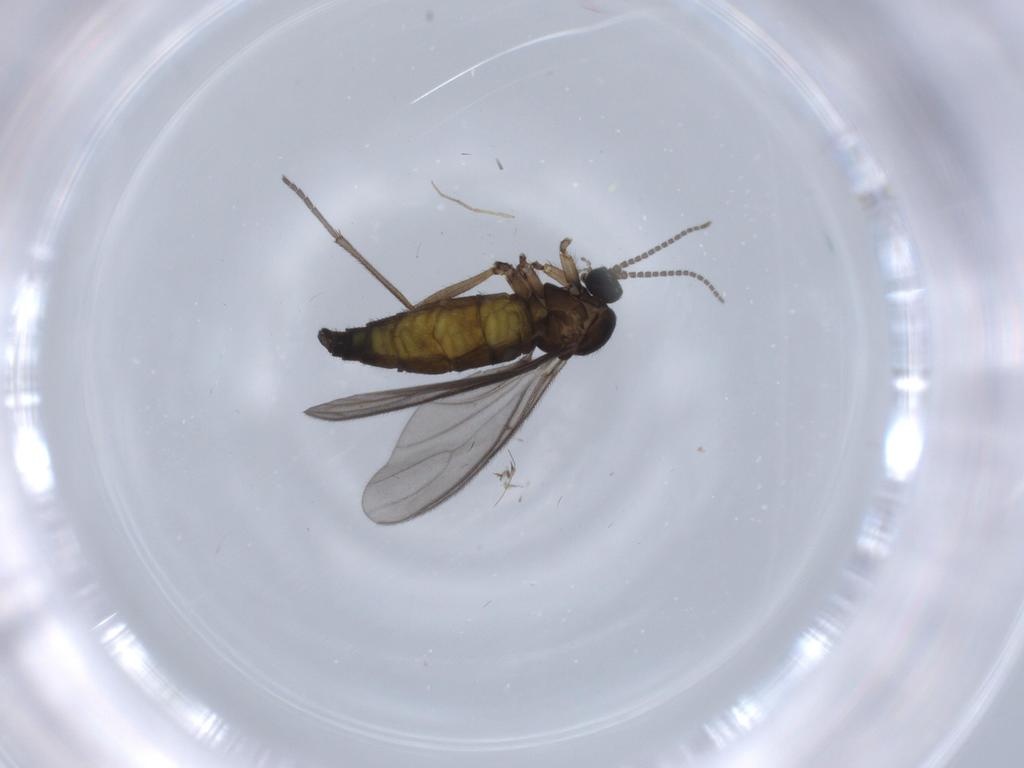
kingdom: Animalia
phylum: Arthropoda
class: Insecta
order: Diptera
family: Sciaridae
